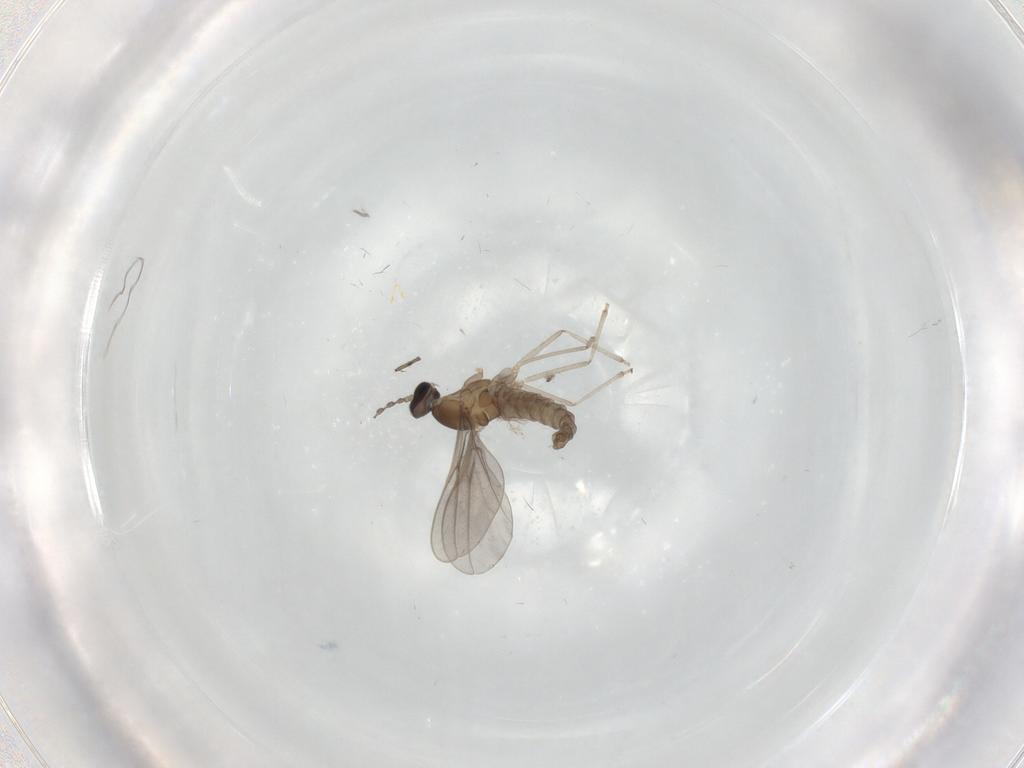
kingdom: Animalia
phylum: Arthropoda
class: Insecta
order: Diptera
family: Cecidomyiidae
